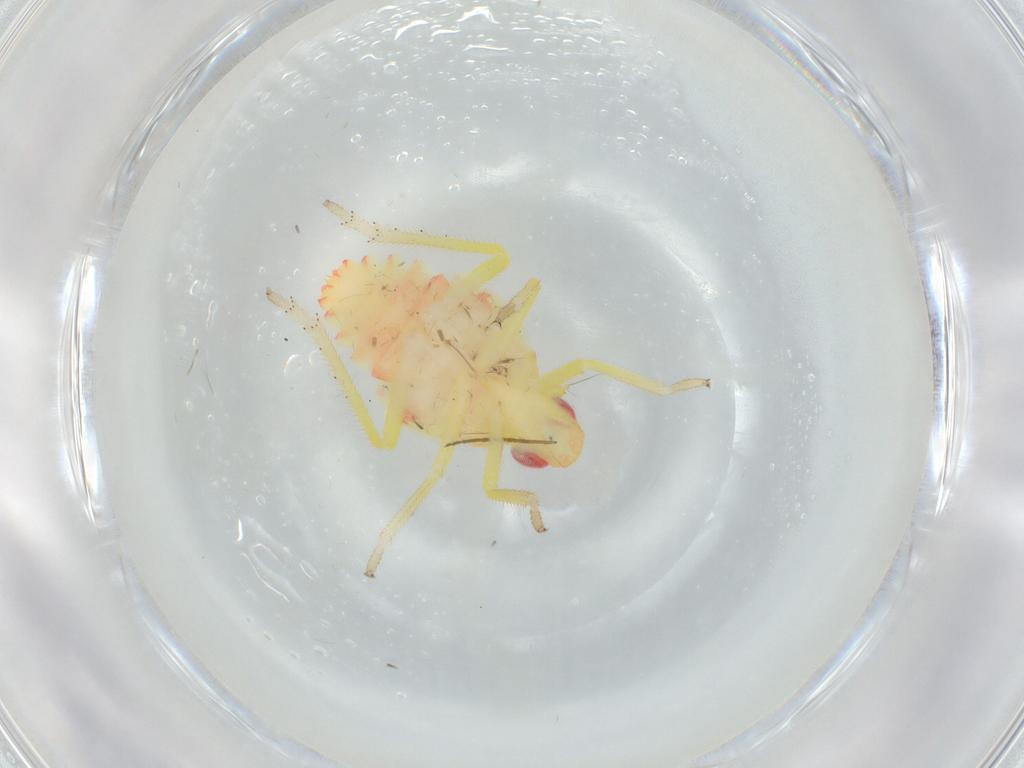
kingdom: Animalia
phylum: Arthropoda
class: Insecta
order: Hemiptera
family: Tropiduchidae
